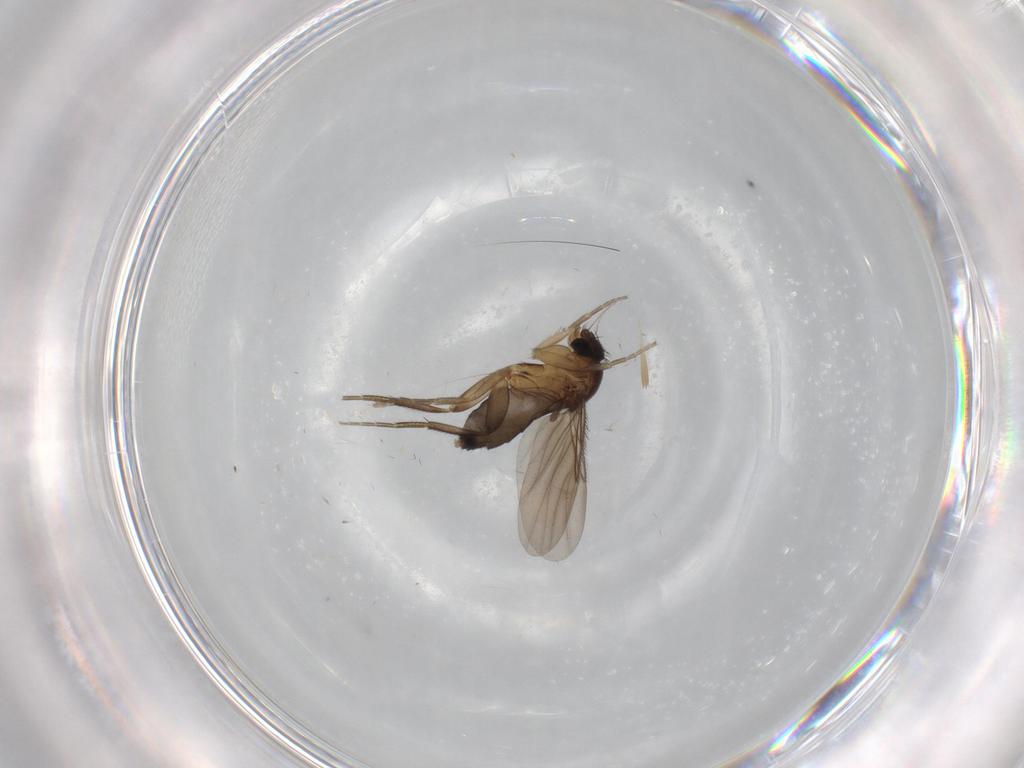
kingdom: Animalia
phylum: Arthropoda
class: Insecta
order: Diptera
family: Phoridae
